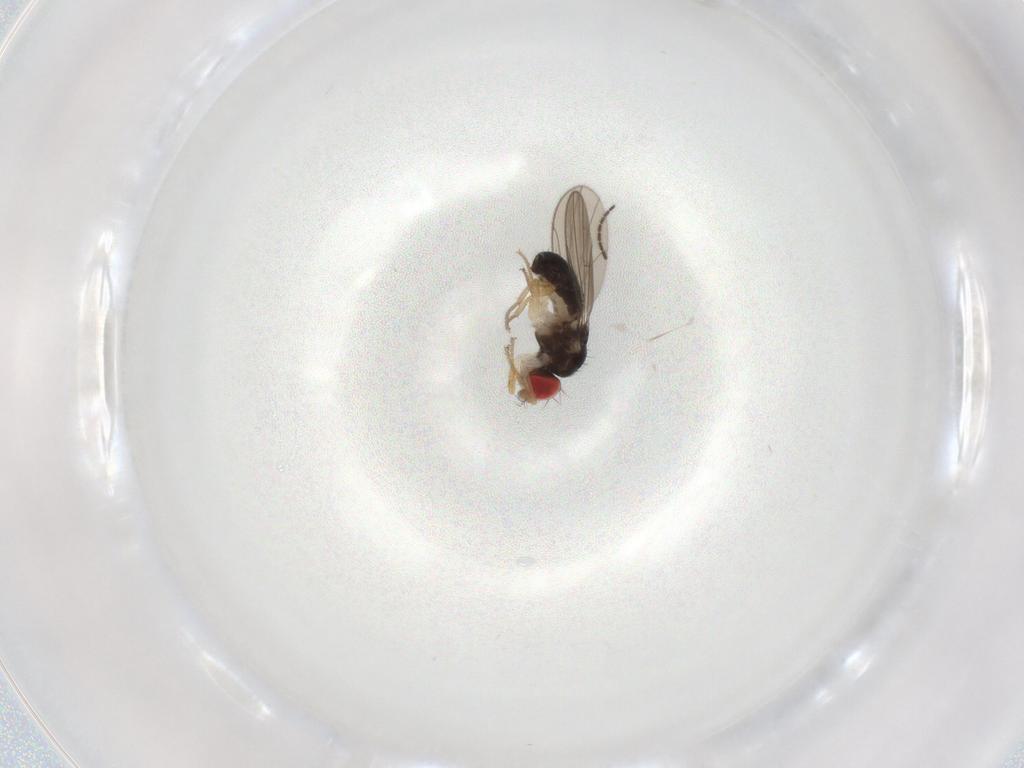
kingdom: Animalia
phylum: Arthropoda
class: Insecta
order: Diptera
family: Drosophilidae
